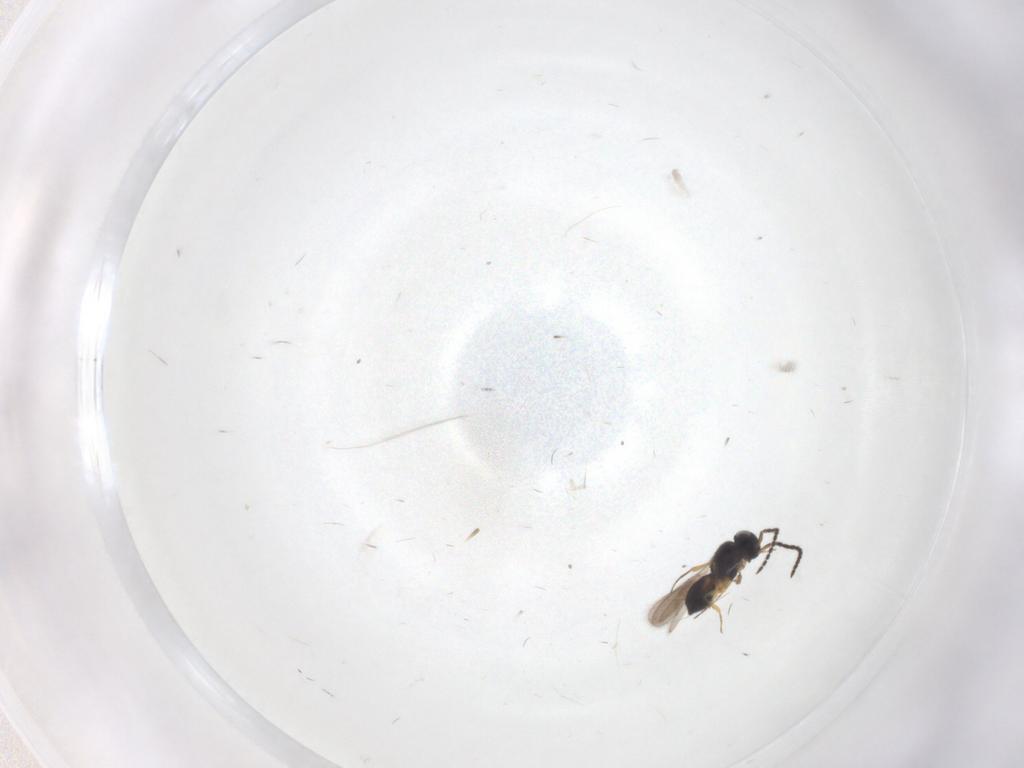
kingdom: Animalia
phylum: Arthropoda
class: Insecta
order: Hymenoptera
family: Scelionidae
